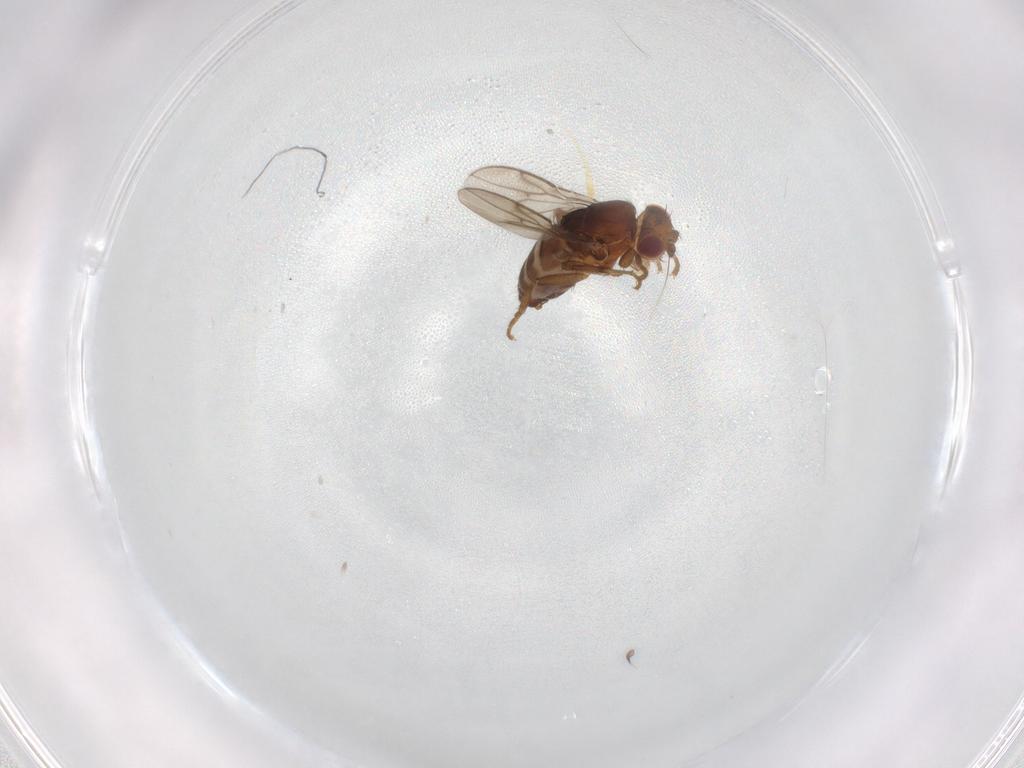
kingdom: Animalia
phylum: Arthropoda
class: Insecta
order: Diptera
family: Sphaeroceridae
